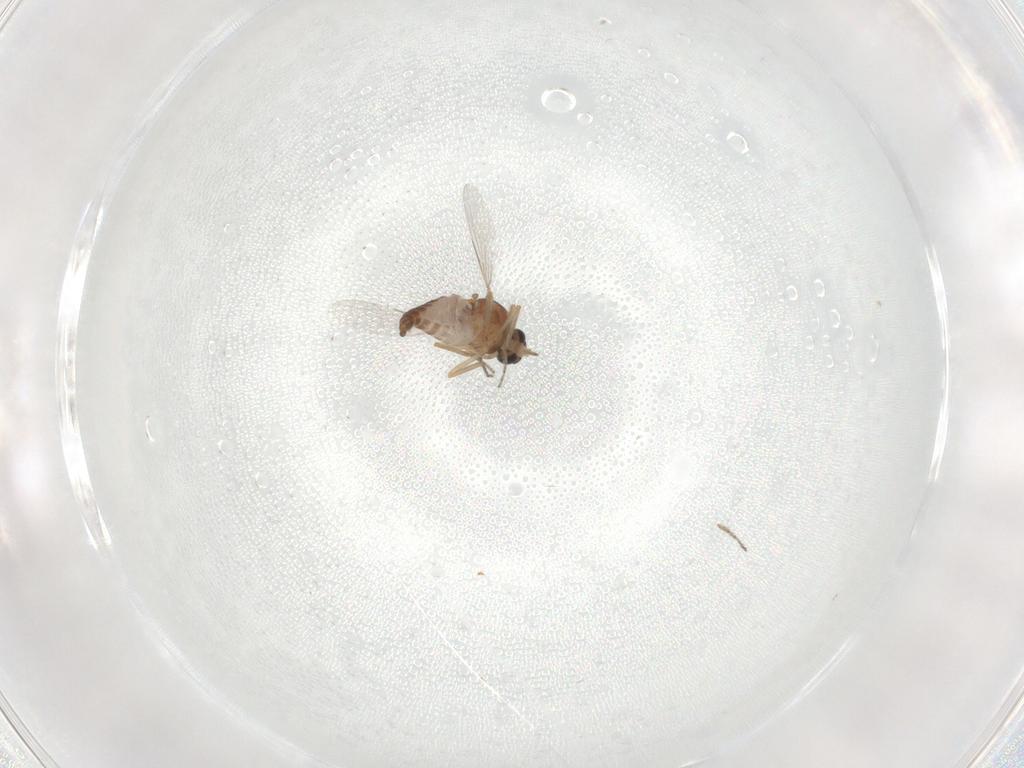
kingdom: Animalia
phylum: Arthropoda
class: Insecta
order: Diptera
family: Ceratopogonidae
